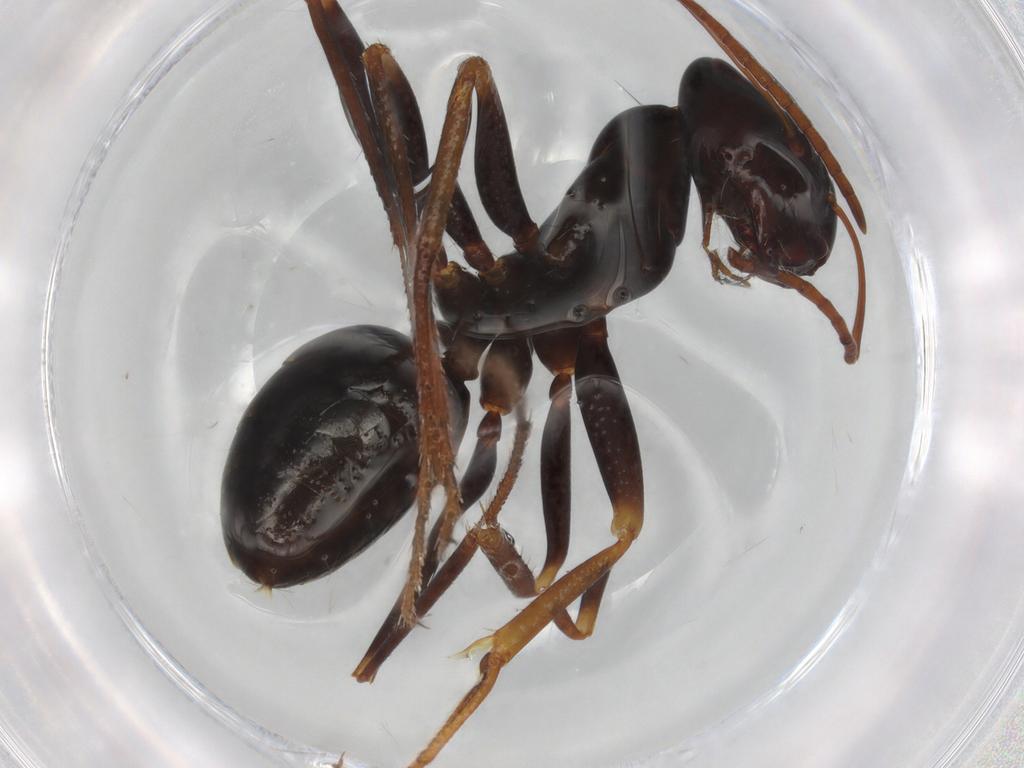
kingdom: Animalia
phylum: Arthropoda
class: Insecta
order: Hymenoptera
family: Formicidae
